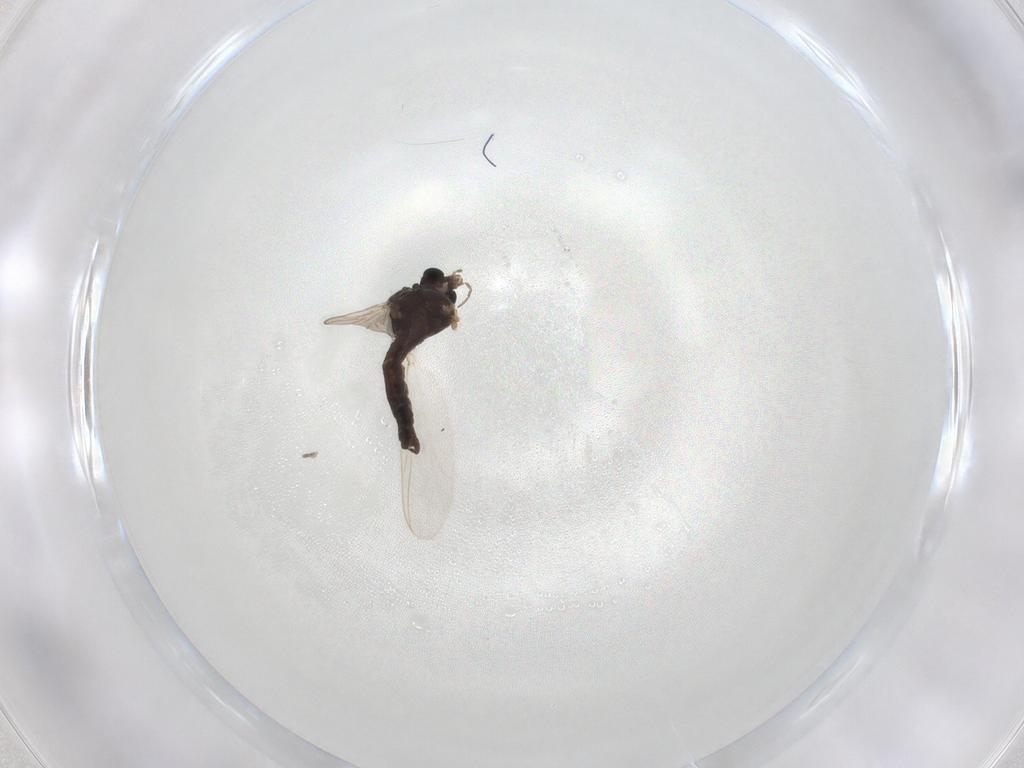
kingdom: Animalia
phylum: Arthropoda
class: Insecta
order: Diptera
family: Chironomidae
